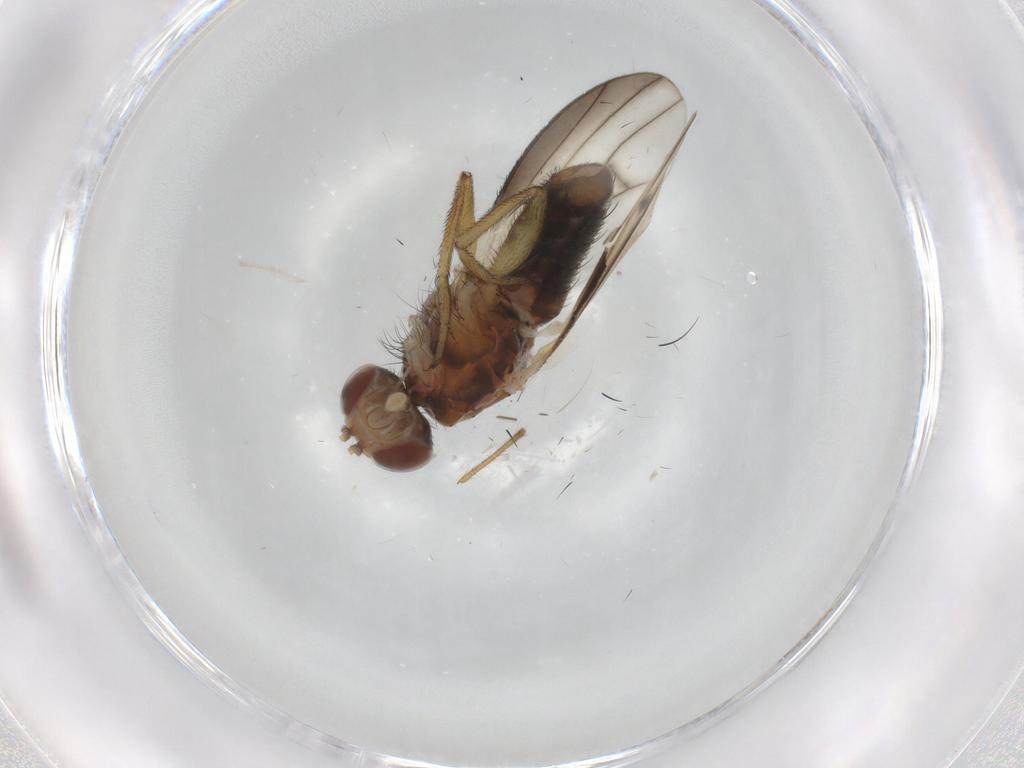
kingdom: Animalia
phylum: Arthropoda
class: Insecta
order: Diptera
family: Heleomyzidae
